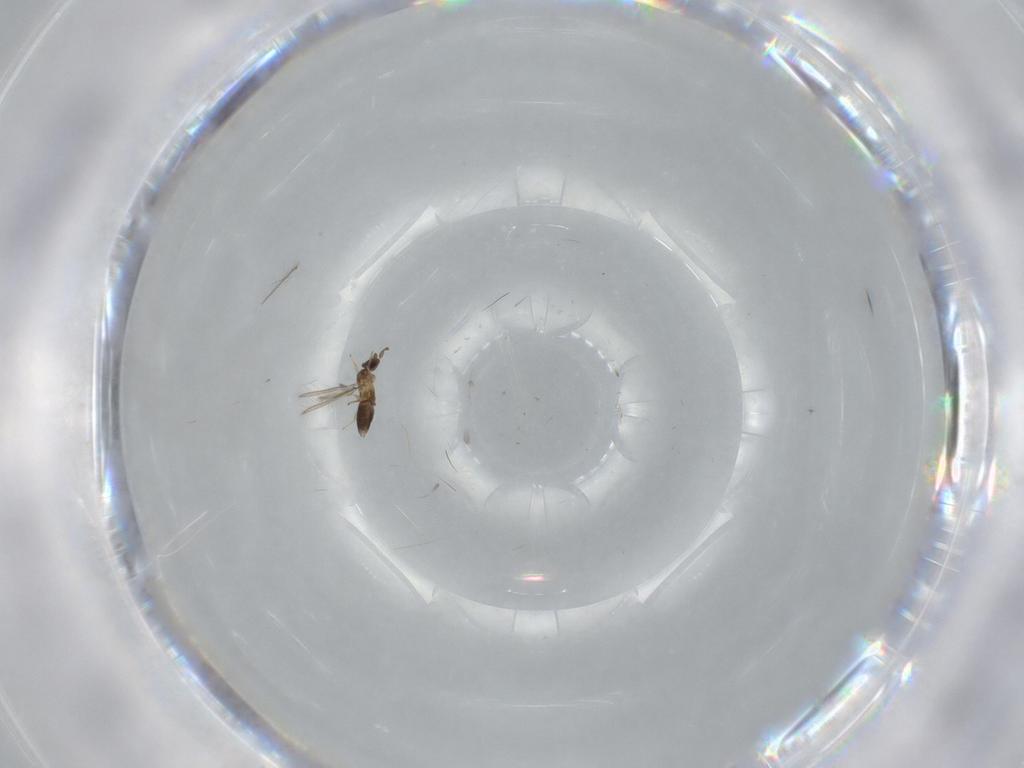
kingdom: Animalia
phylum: Arthropoda
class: Insecta
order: Hymenoptera
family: Mymaridae
